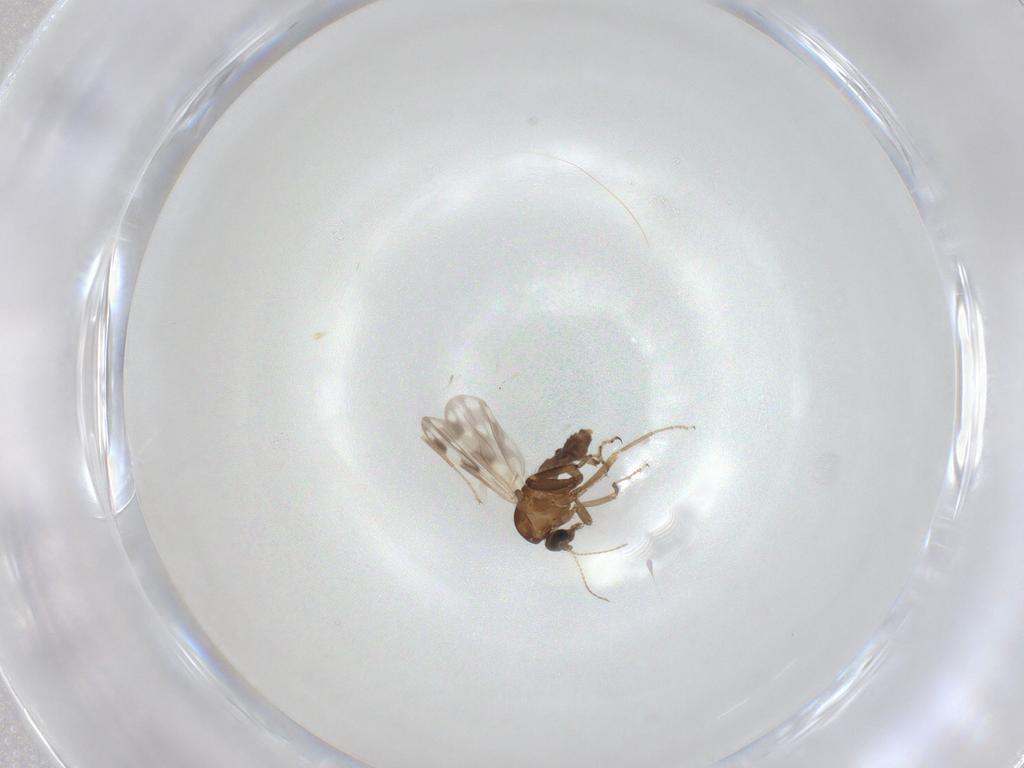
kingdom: Animalia
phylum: Arthropoda
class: Insecta
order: Diptera
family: Ceratopogonidae
